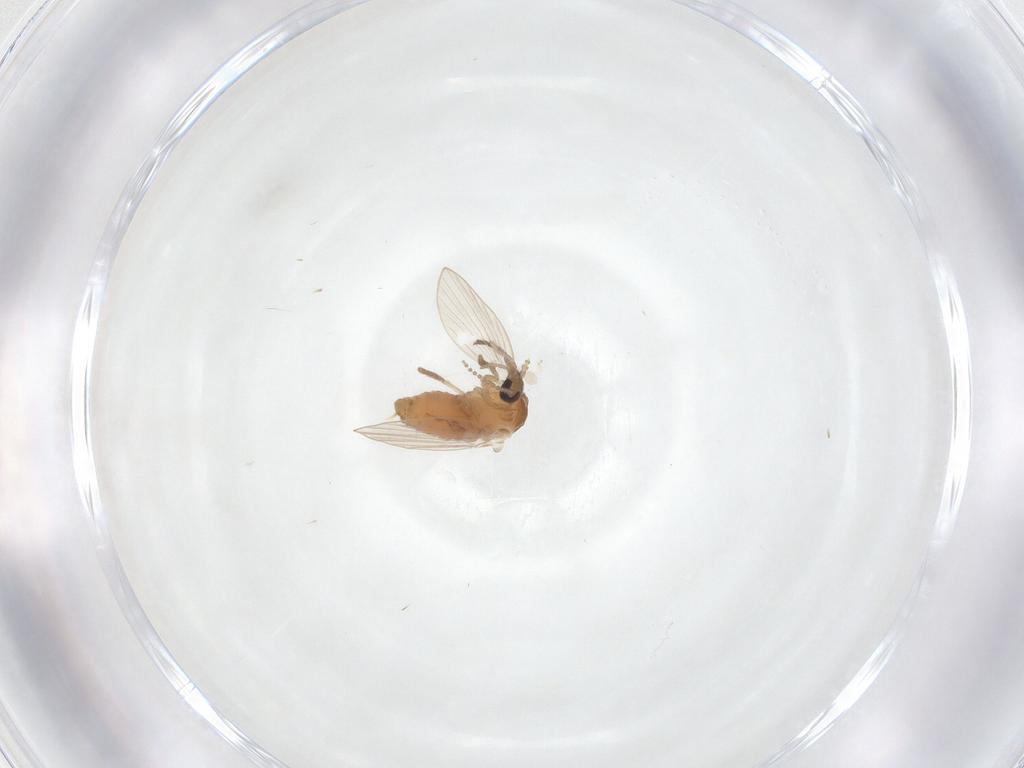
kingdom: Animalia
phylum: Arthropoda
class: Insecta
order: Diptera
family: Psychodidae
